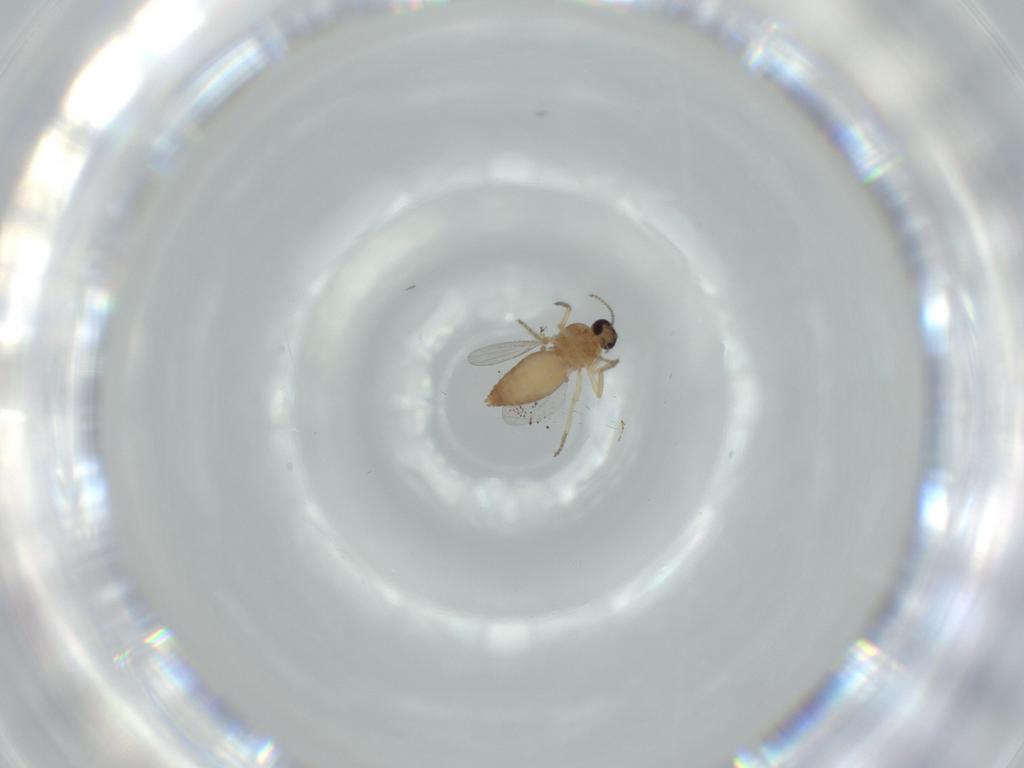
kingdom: Animalia
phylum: Arthropoda
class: Insecta
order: Diptera
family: Ceratopogonidae
